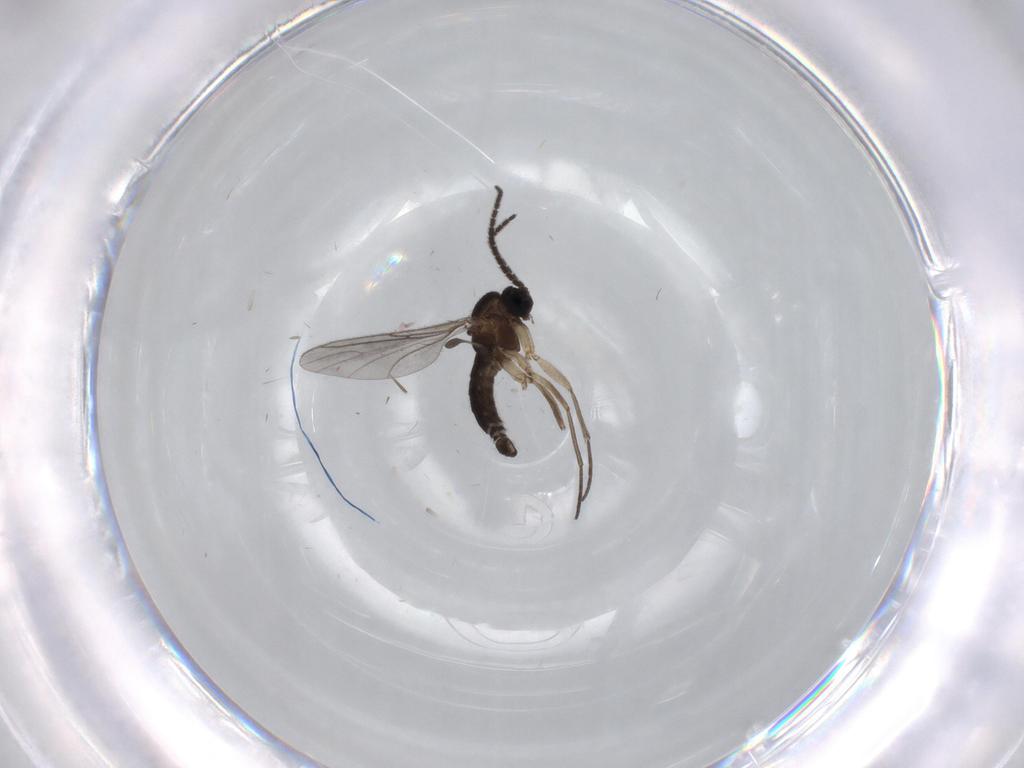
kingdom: Animalia
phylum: Arthropoda
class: Insecta
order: Diptera
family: Sciaridae
